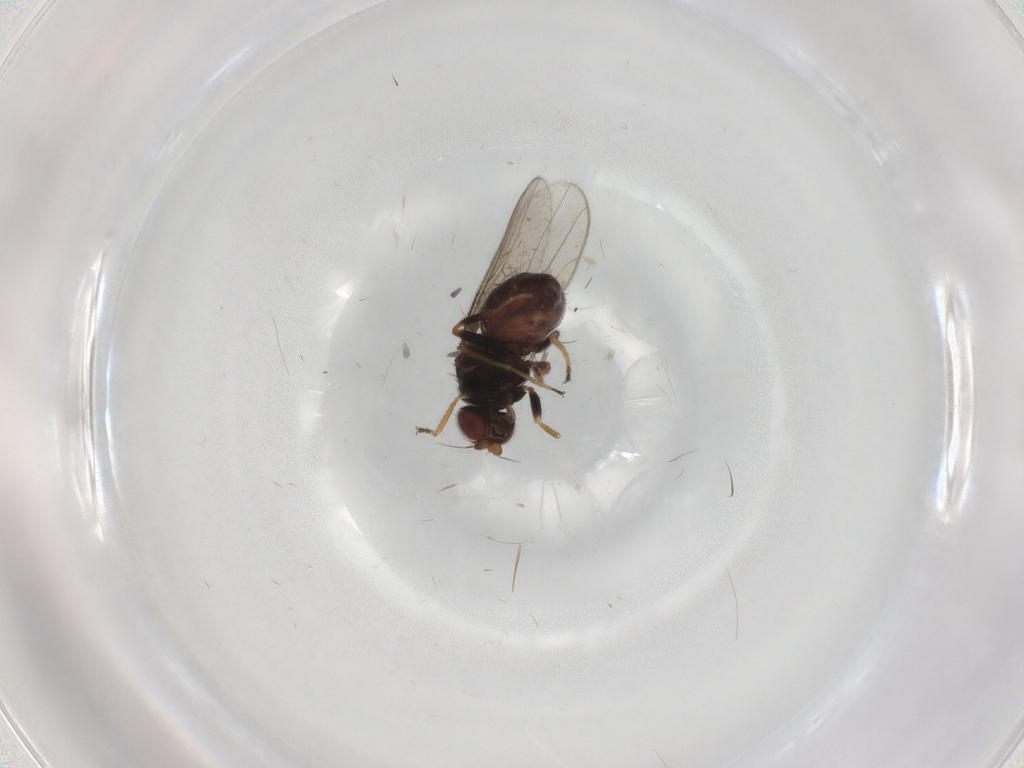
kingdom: Animalia
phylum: Arthropoda
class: Insecta
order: Diptera
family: Chloropidae
